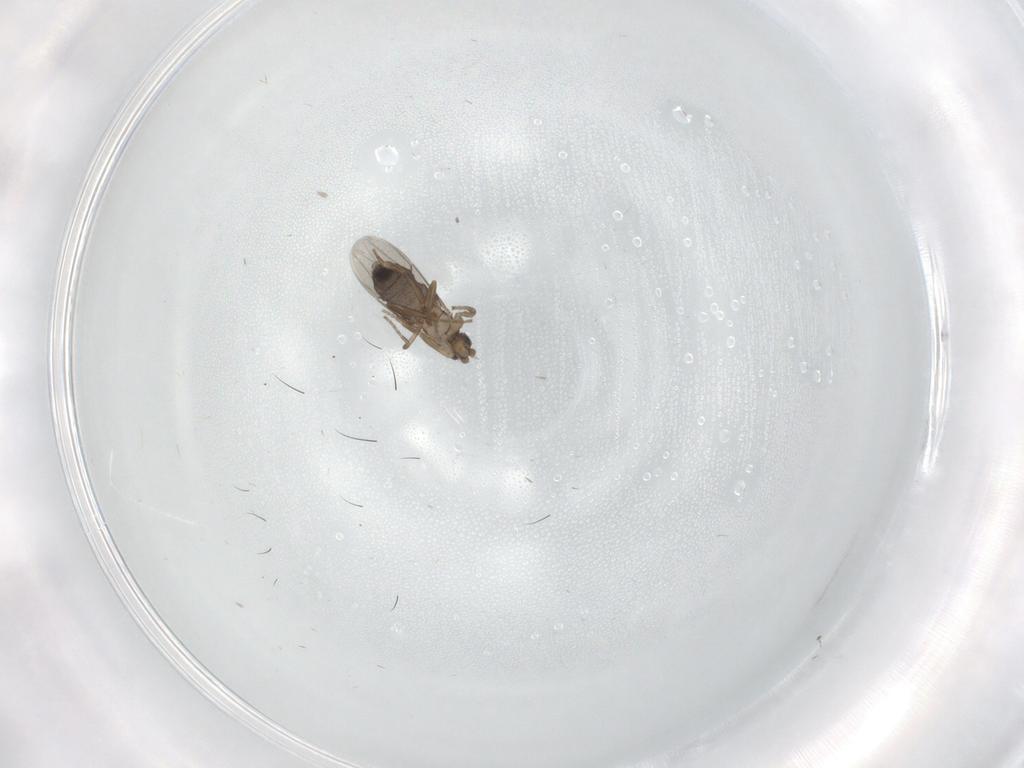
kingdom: Animalia
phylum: Arthropoda
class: Insecta
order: Diptera
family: Phoridae
